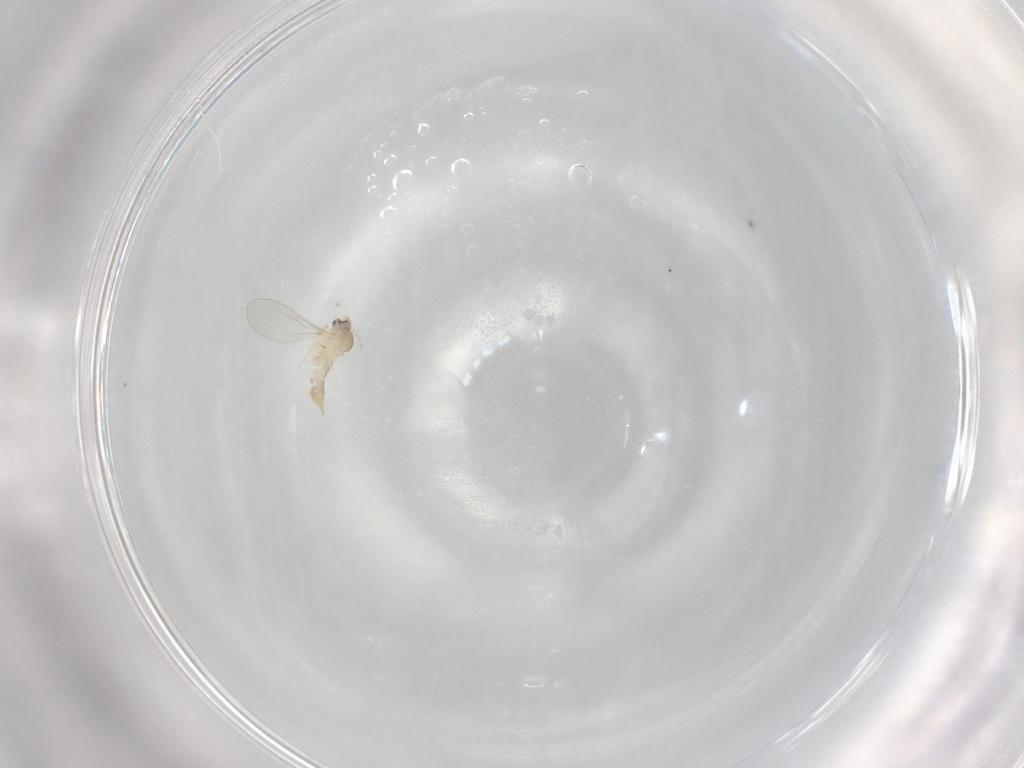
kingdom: Animalia
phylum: Arthropoda
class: Insecta
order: Diptera
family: Cecidomyiidae
